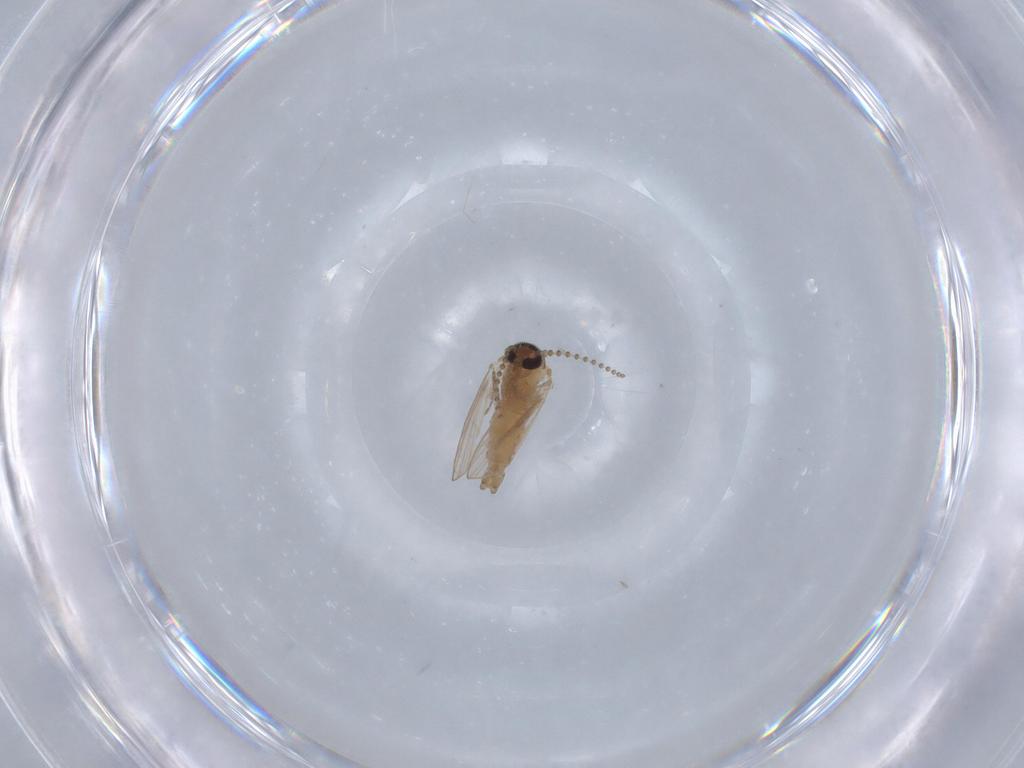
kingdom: Animalia
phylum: Arthropoda
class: Insecta
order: Diptera
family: Psychodidae
